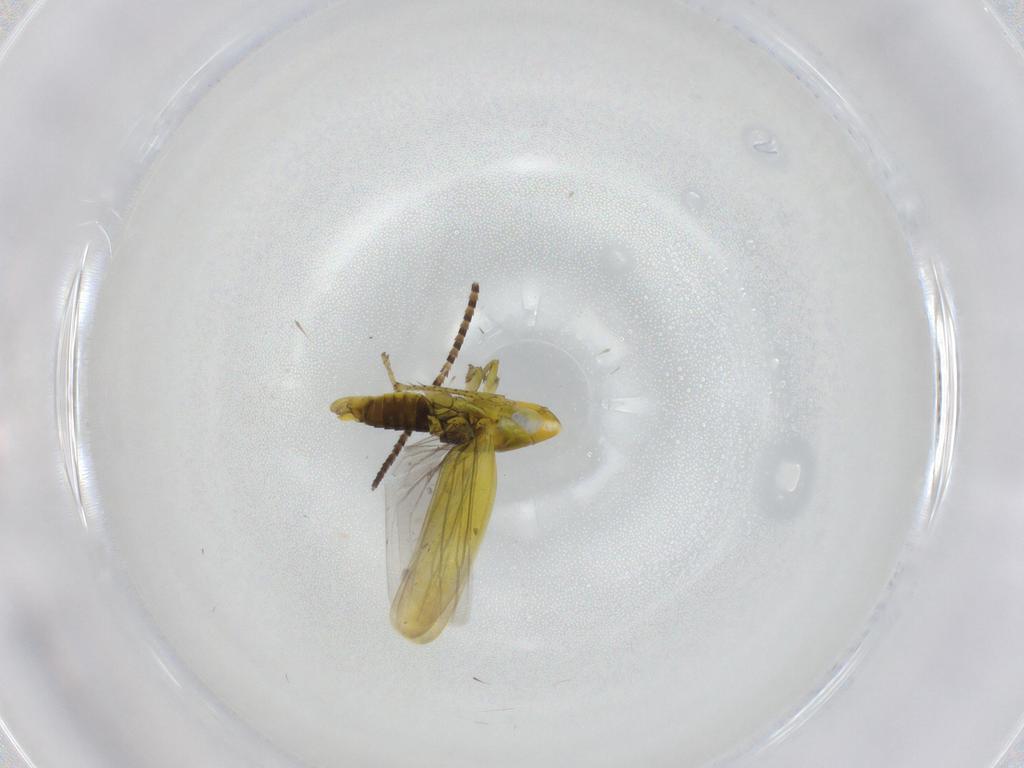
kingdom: Animalia
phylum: Arthropoda
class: Insecta
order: Hemiptera
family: Cicadellidae
